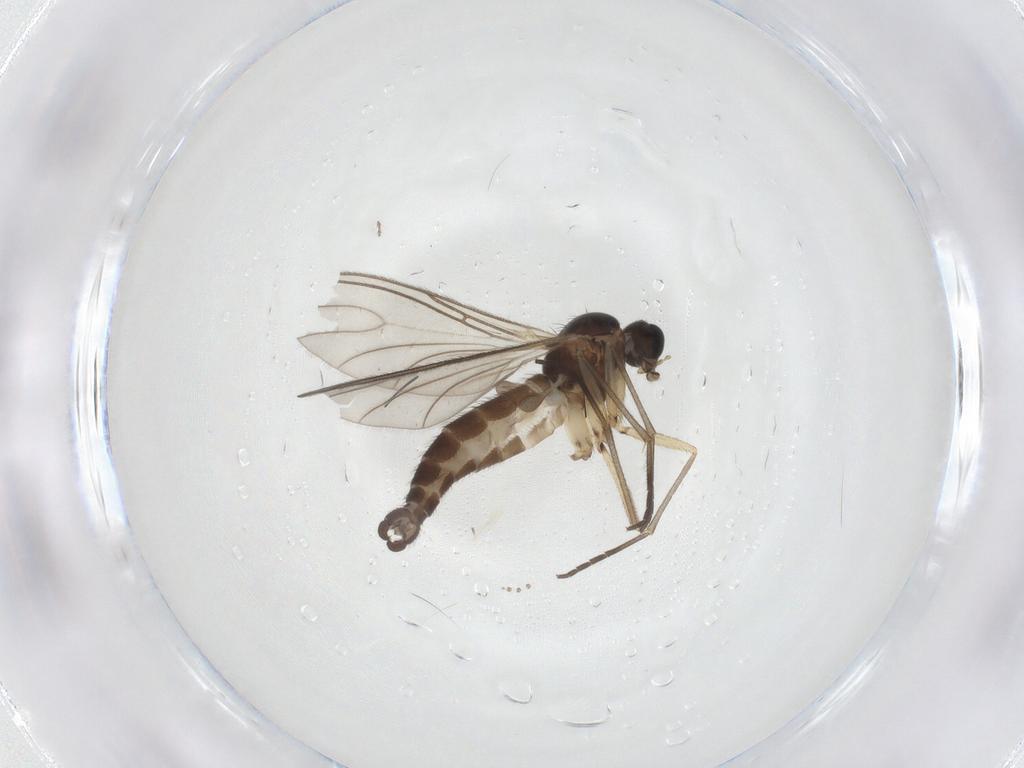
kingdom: Animalia
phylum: Arthropoda
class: Insecta
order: Diptera
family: Sciaridae
